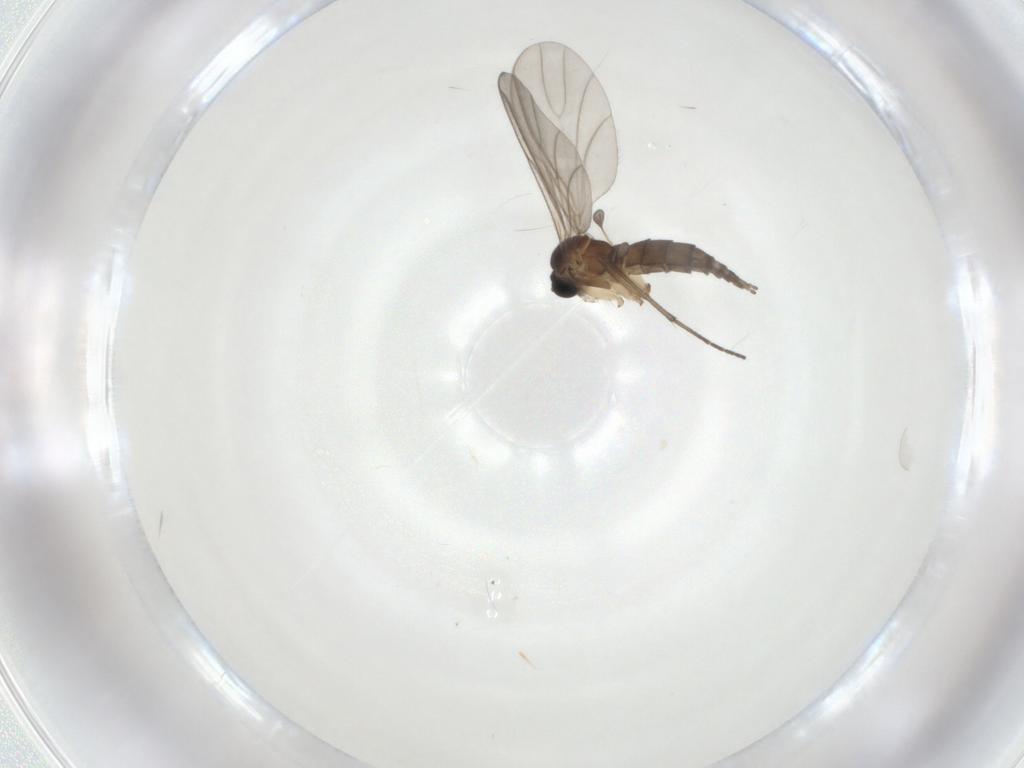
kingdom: Animalia
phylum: Arthropoda
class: Insecta
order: Diptera
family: Sciaridae
